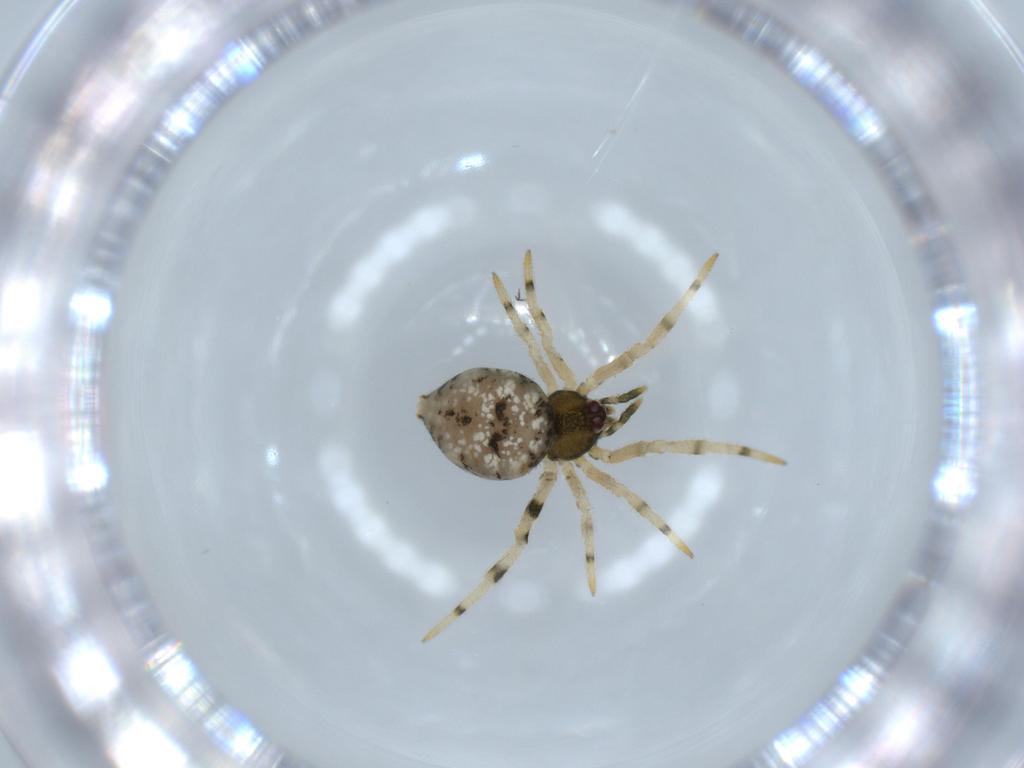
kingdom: Animalia
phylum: Arthropoda
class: Arachnida
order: Araneae
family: Theridiidae
